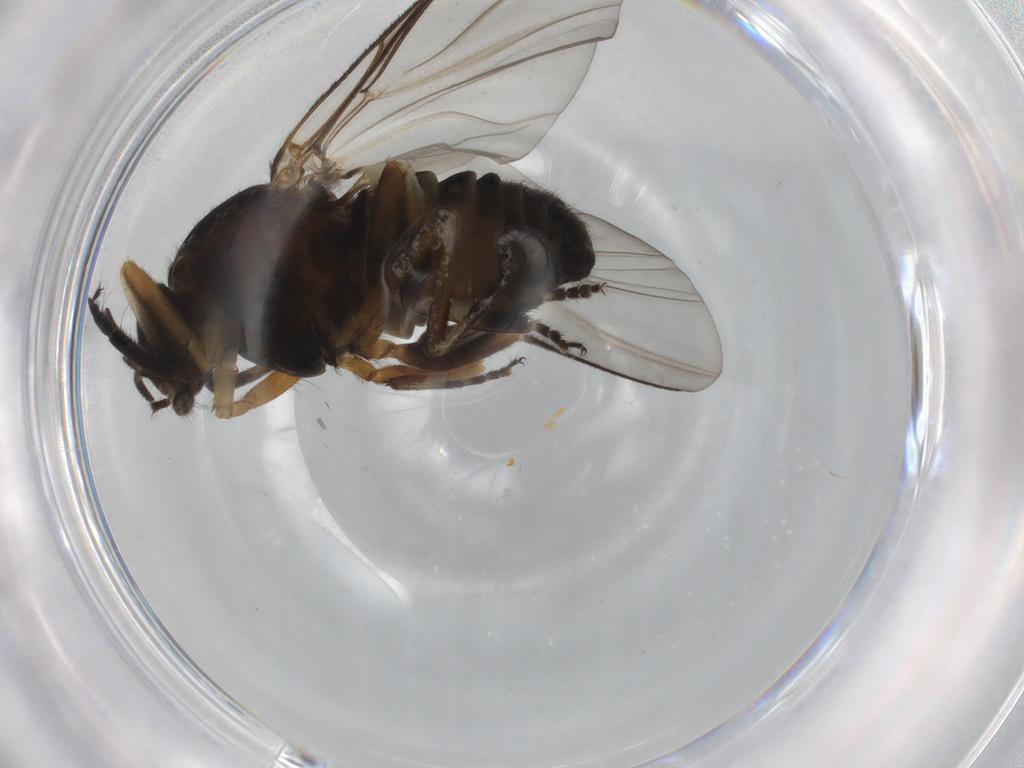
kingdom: Animalia
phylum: Arthropoda
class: Insecta
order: Diptera
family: Simuliidae
